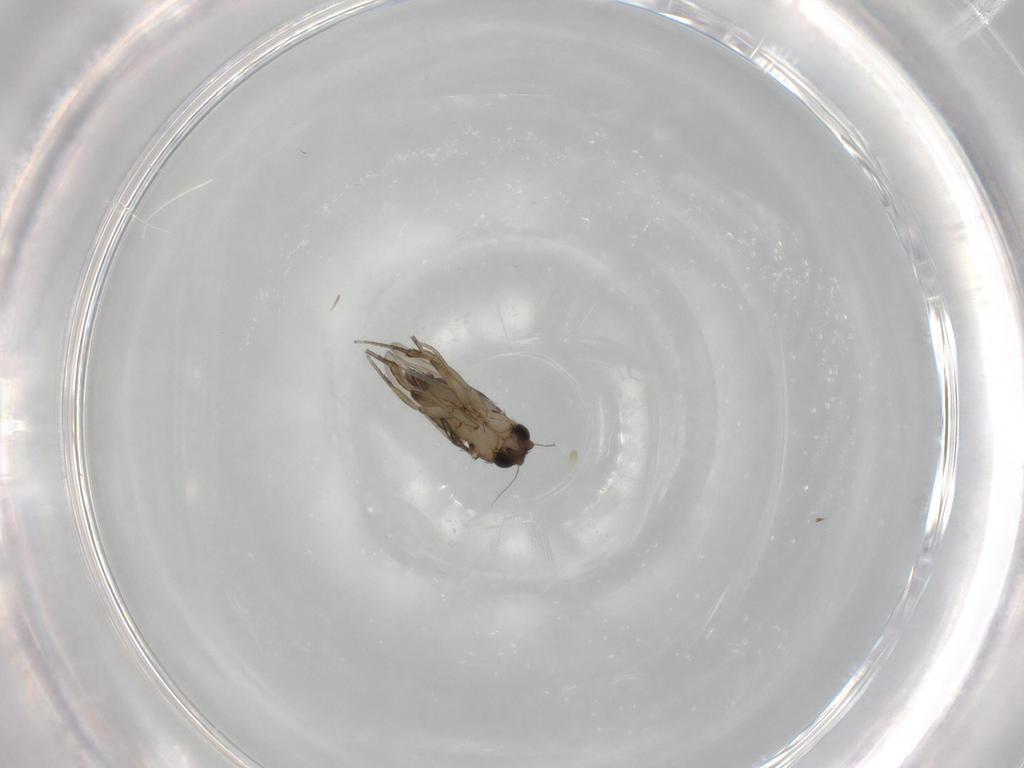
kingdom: Animalia
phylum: Arthropoda
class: Insecta
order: Diptera
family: Phoridae
